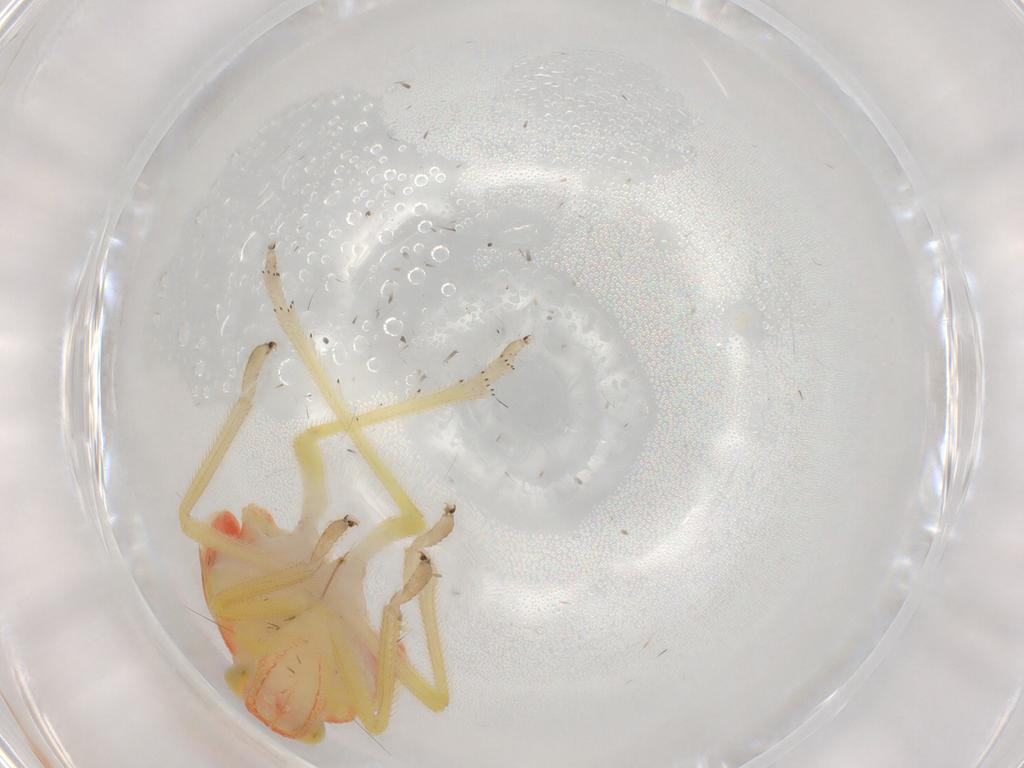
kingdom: Animalia
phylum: Arthropoda
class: Insecta
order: Hemiptera
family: Tropiduchidae
